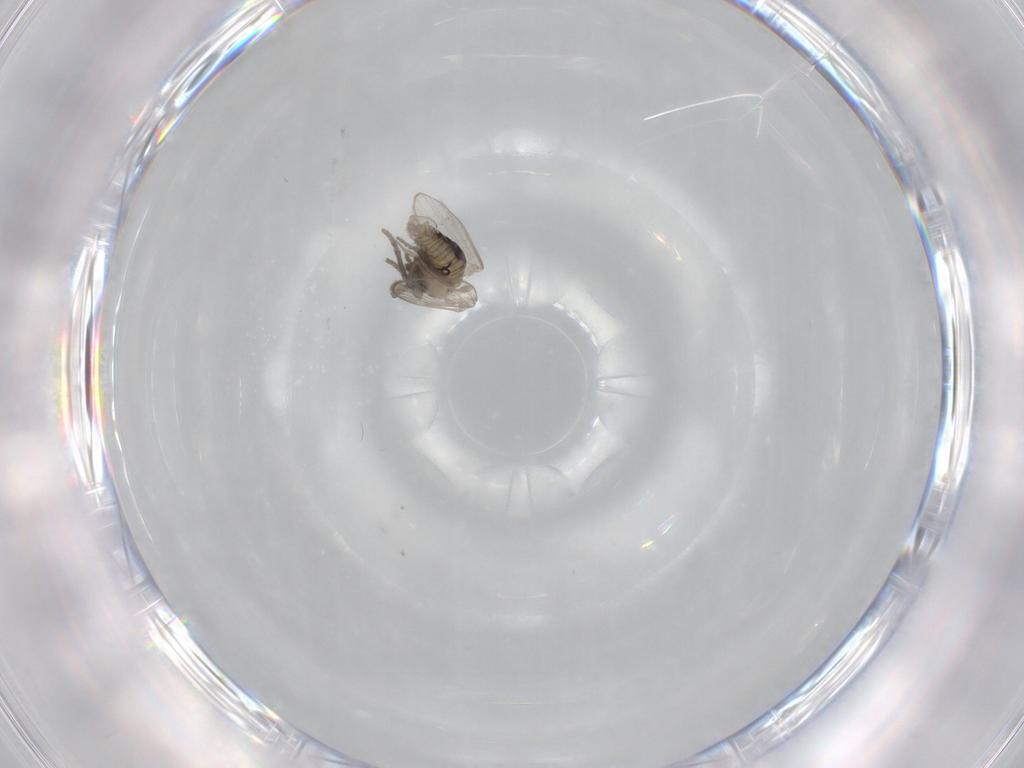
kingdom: Animalia
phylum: Arthropoda
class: Insecta
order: Diptera
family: Psychodidae
